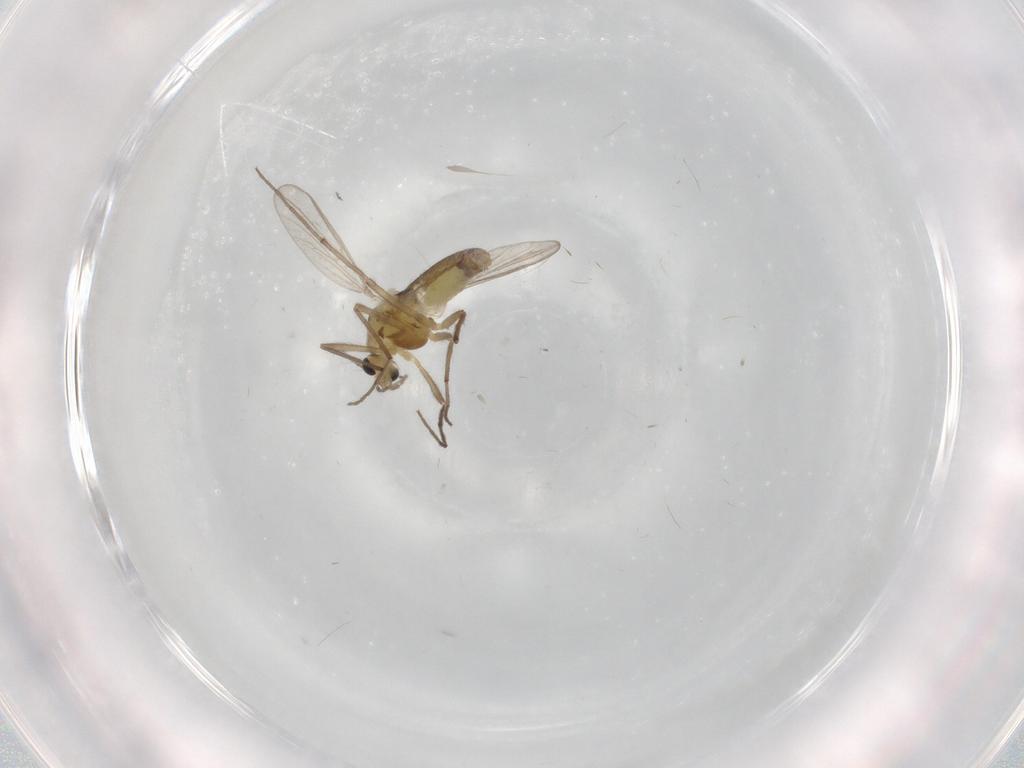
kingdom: Animalia
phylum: Arthropoda
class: Insecta
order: Diptera
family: Chironomidae
